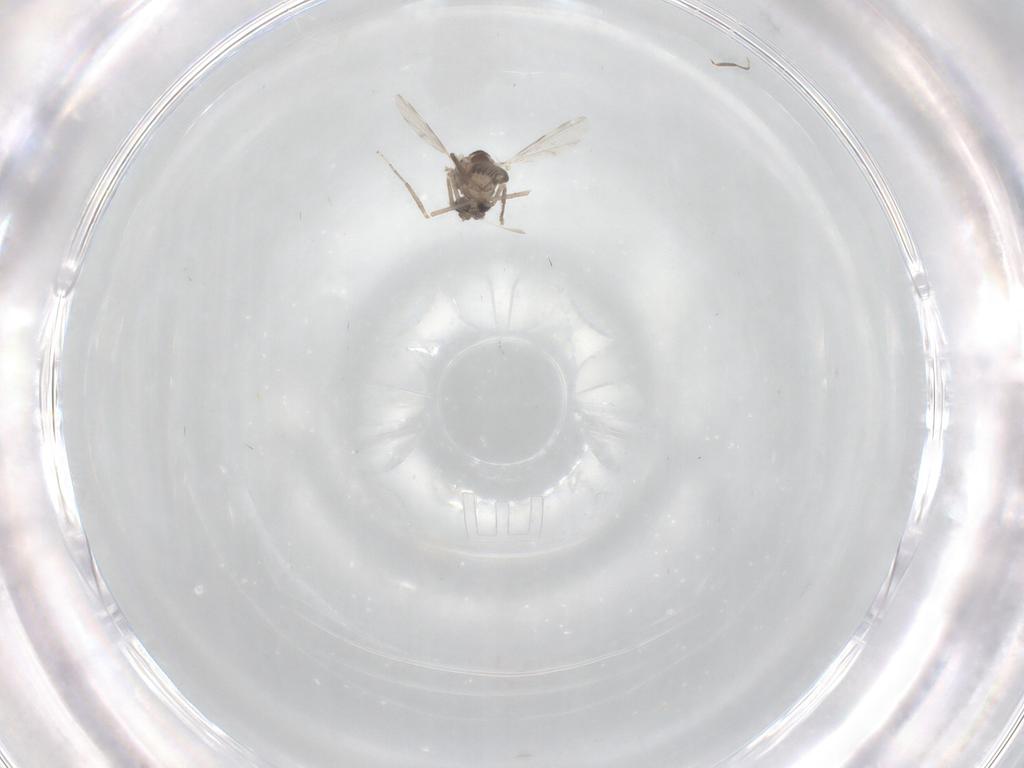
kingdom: Animalia
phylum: Arthropoda
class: Insecta
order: Diptera
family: Ceratopogonidae
